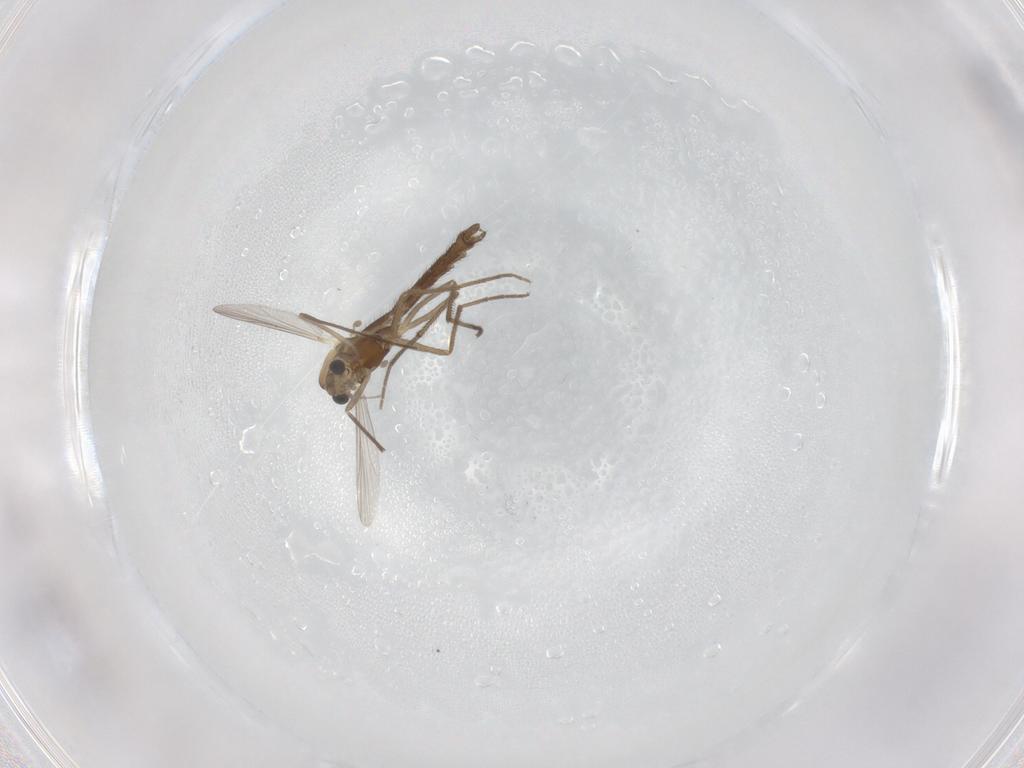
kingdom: Animalia
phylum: Arthropoda
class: Insecta
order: Diptera
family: Chironomidae
